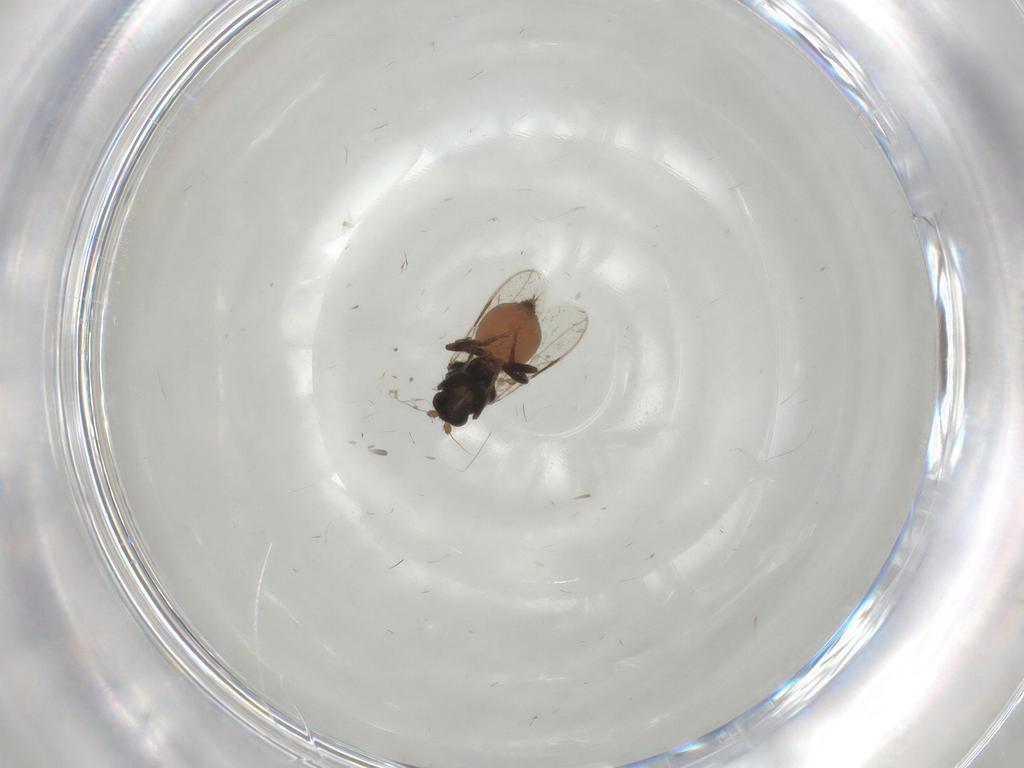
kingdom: Animalia
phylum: Arthropoda
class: Insecta
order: Diptera
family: Sphaeroceridae
